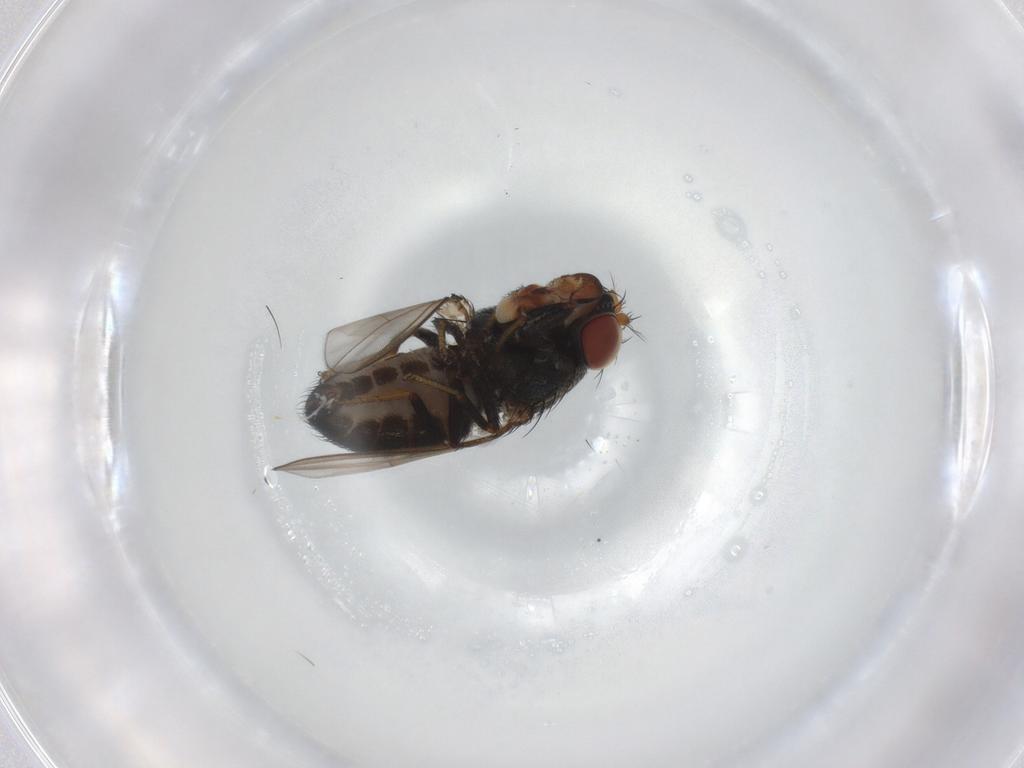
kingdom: Animalia
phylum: Arthropoda
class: Insecta
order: Diptera
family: Ephydridae
